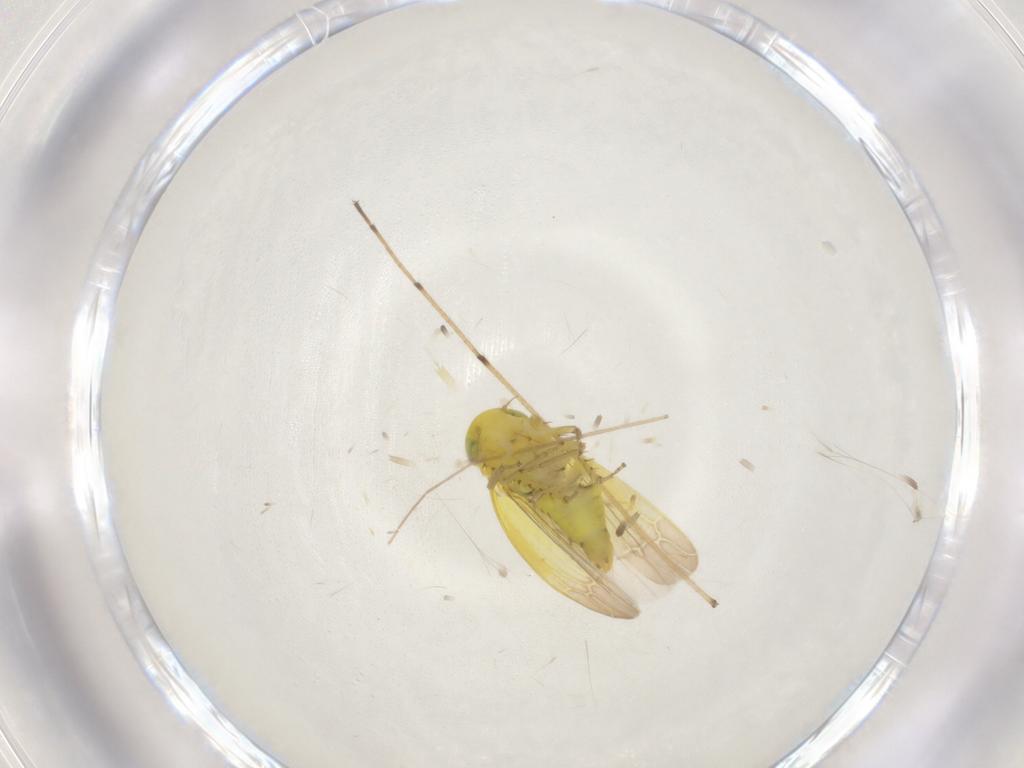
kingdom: Animalia
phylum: Arthropoda
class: Insecta
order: Hemiptera
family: Cicadellidae
